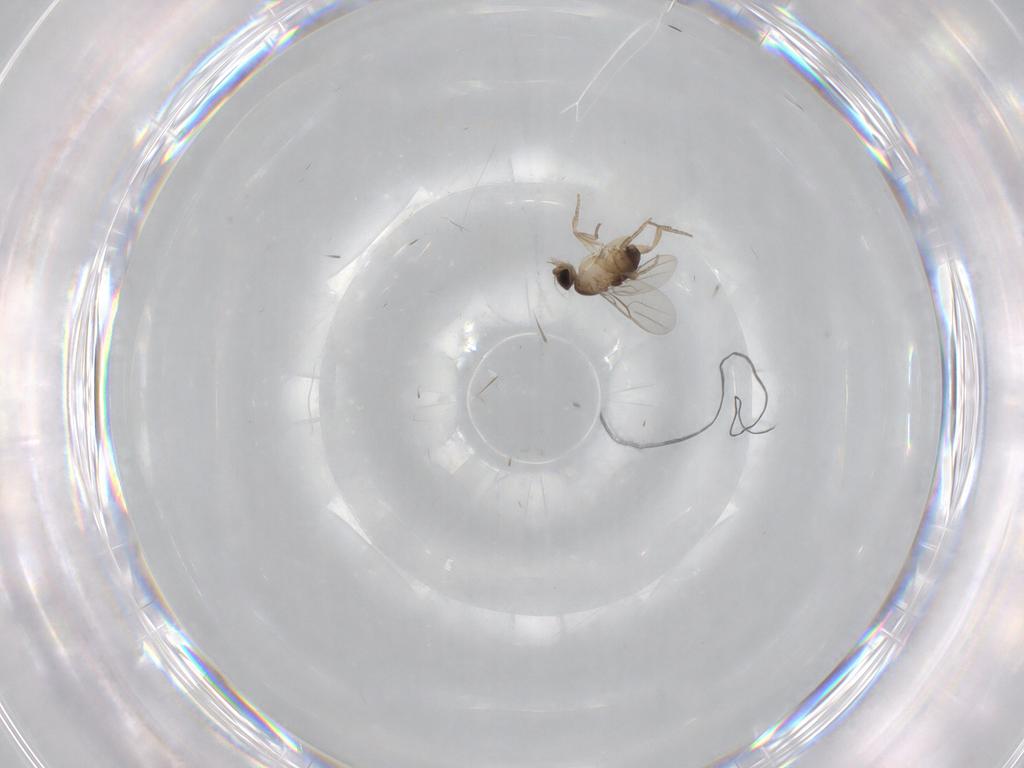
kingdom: Animalia
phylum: Arthropoda
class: Insecta
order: Diptera
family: Phoridae
